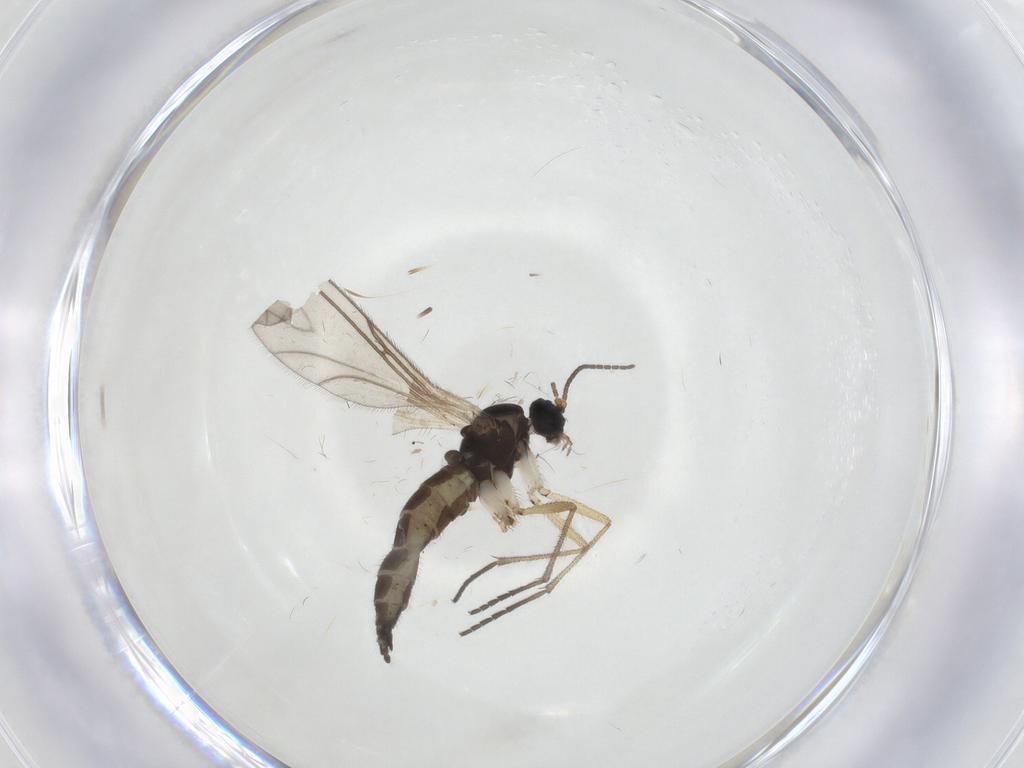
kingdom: Animalia
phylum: Arthropoda
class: Insecta
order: Diptera
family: Sciaridae
